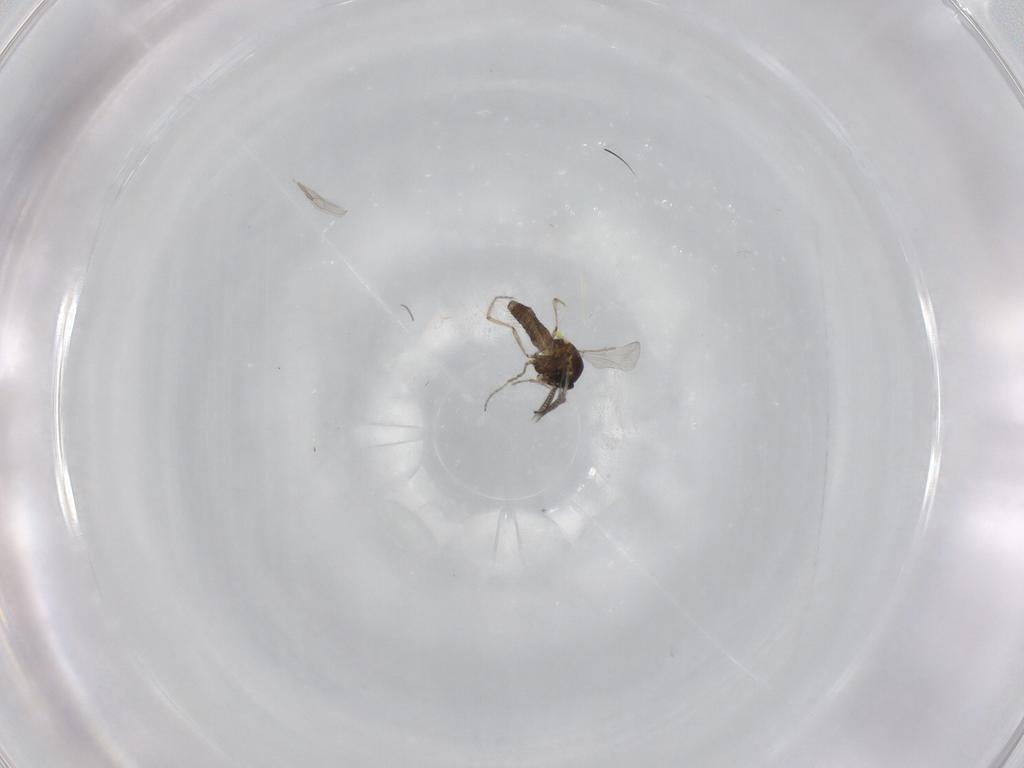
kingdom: Animalia
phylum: Arthropoda
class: Insecta
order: Diptera
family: Ceratopogonidae
